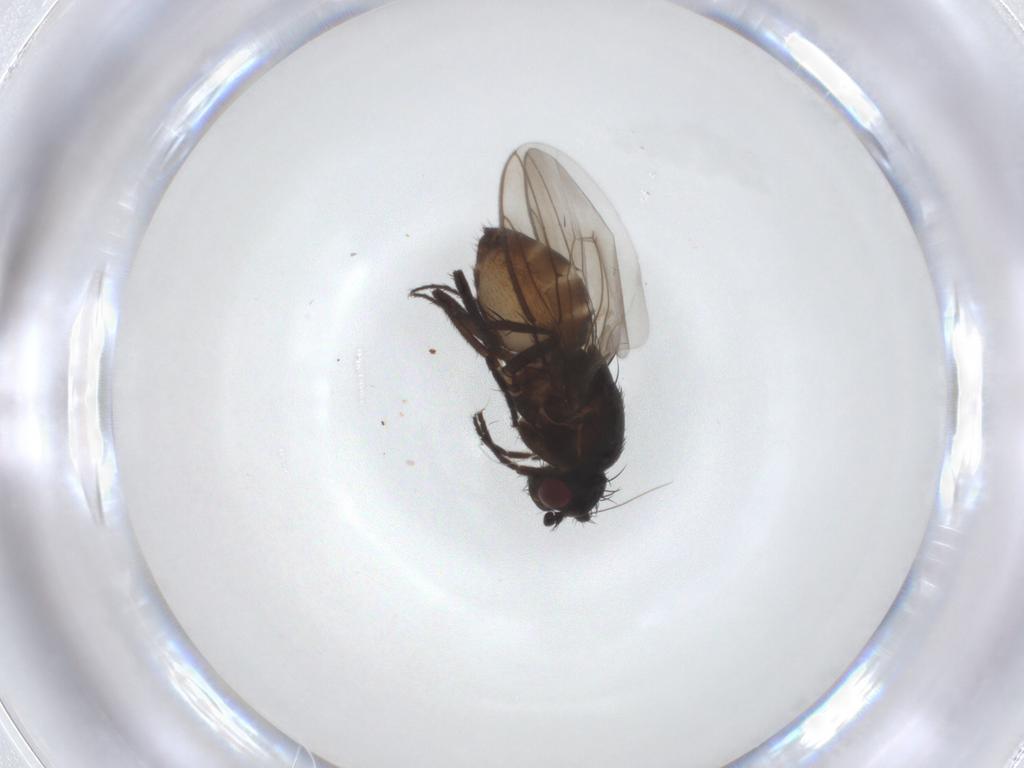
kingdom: Animalia
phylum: Arthropoda
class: Insecta
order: Diptera
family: Sphaeroceridae
